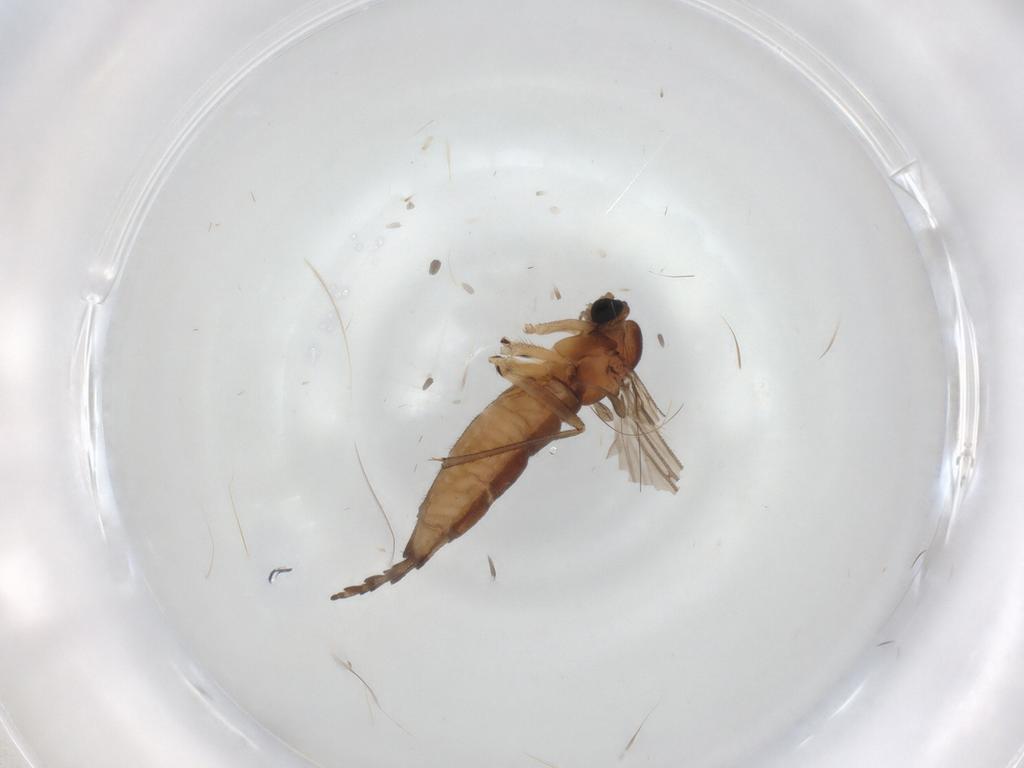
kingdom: Animalia
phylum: Arthropoda
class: Insecta
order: Diptera
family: Sciaridae
